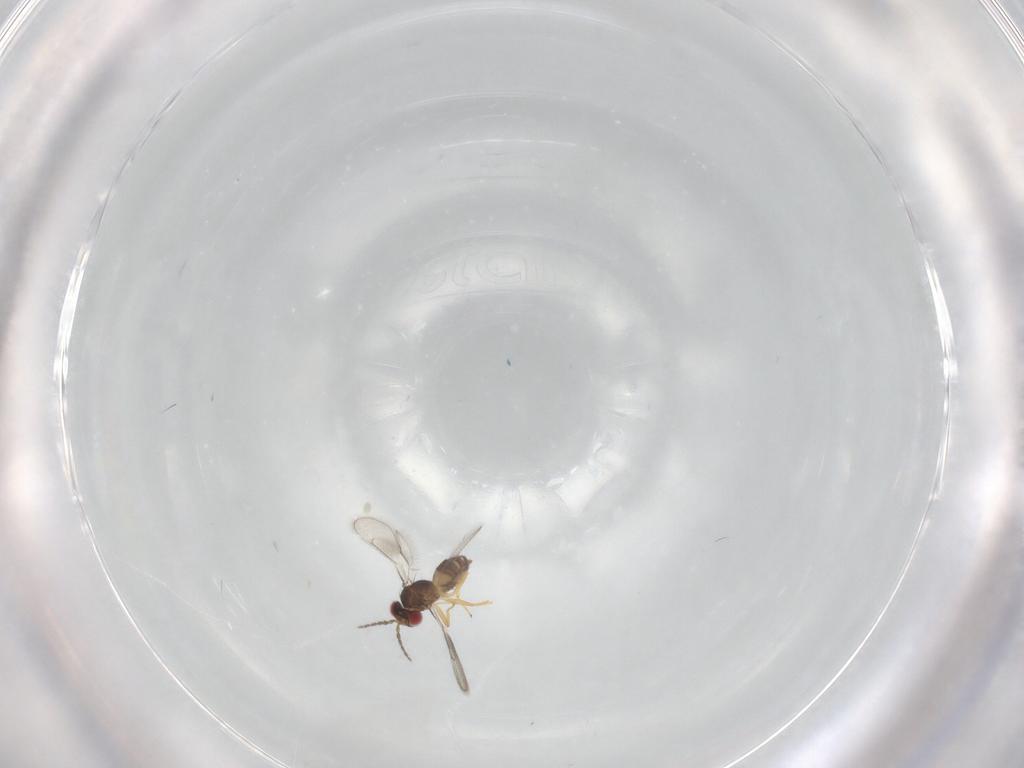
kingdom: Animalia
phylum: Arthropoda
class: Insecta
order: Hymenoptera
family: Eulophidae
